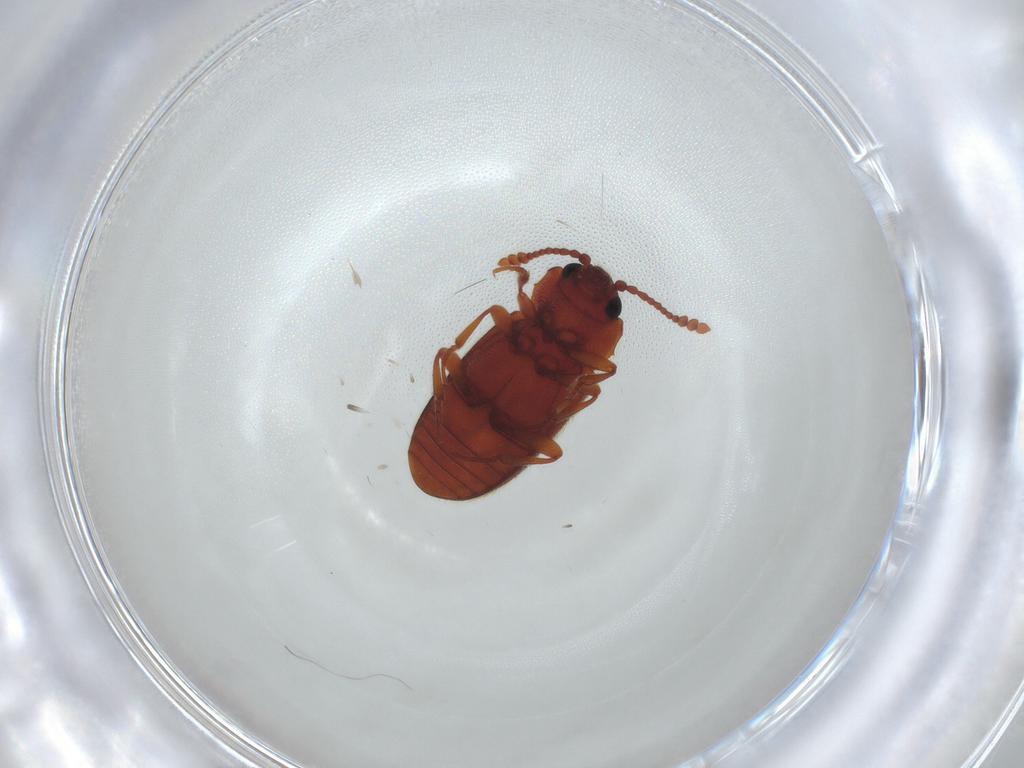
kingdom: Animalia
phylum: Arthropoda
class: Insecta
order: Coleoptera
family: Cryptophagidae
